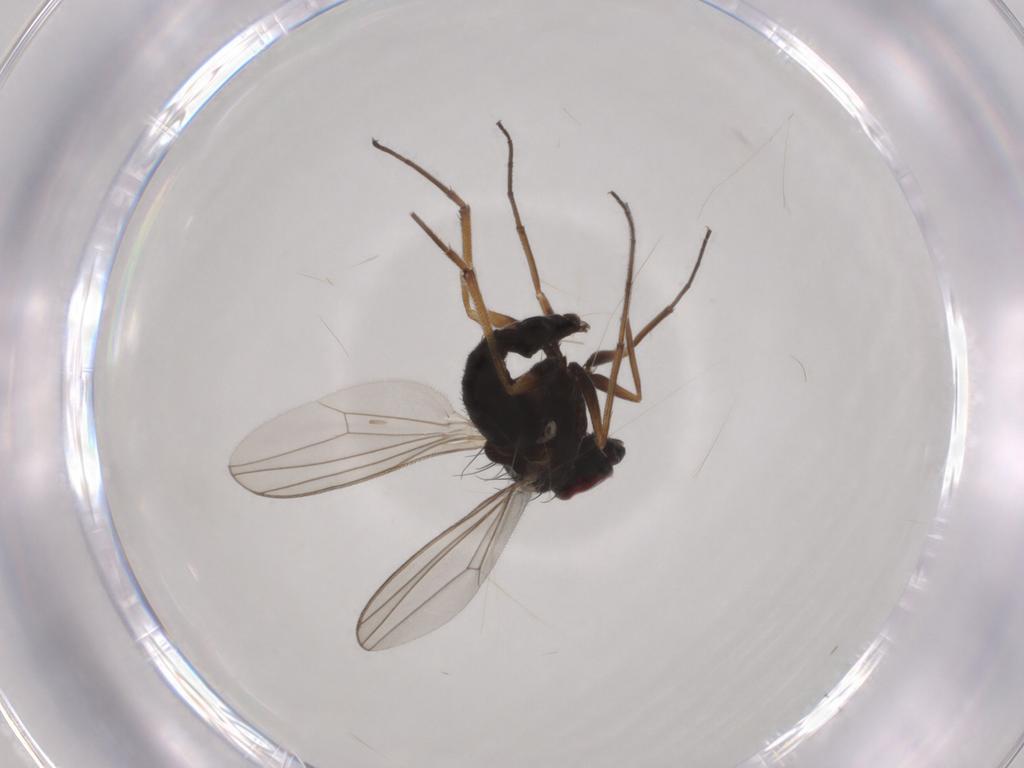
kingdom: Animalia
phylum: Arthropoda
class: Insecta
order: Diptera
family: Dolichopodidae
